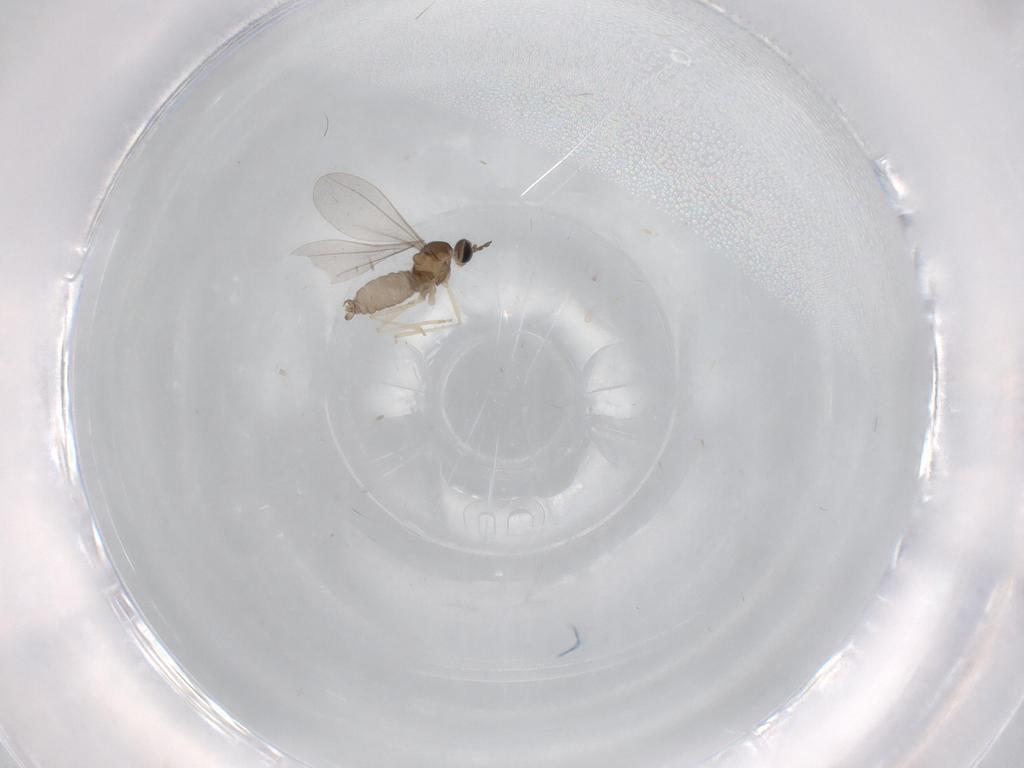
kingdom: Animalia
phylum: Arthropoda
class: Insecta
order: Diptera
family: Cecidomyiidae
